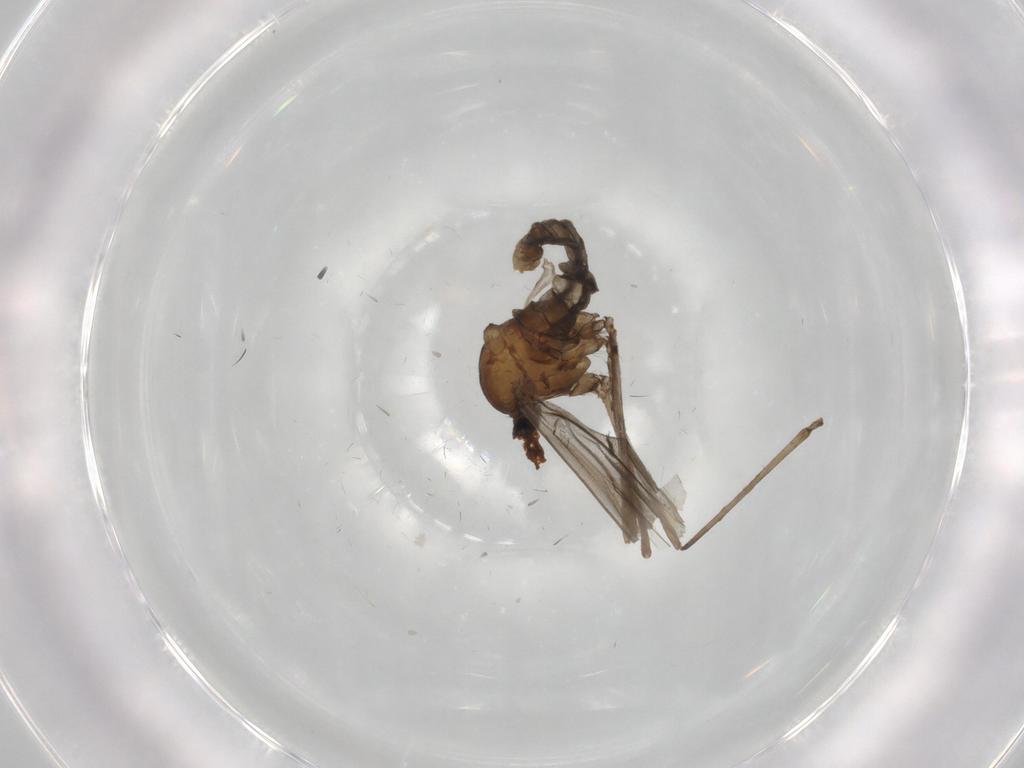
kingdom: Animalia
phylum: Arthropoda
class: Insecta
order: Diptera
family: Cecidomyiidae
